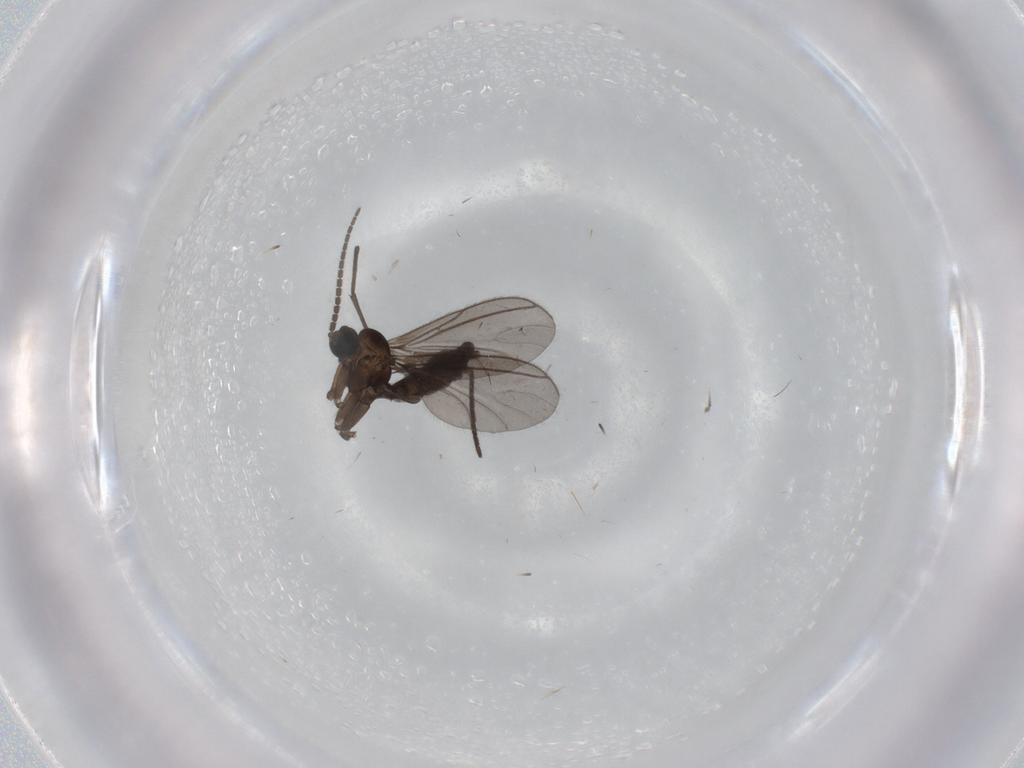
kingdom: Animalia
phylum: Arthropoda
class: Insecta
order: Diptera
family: Sciaridae
